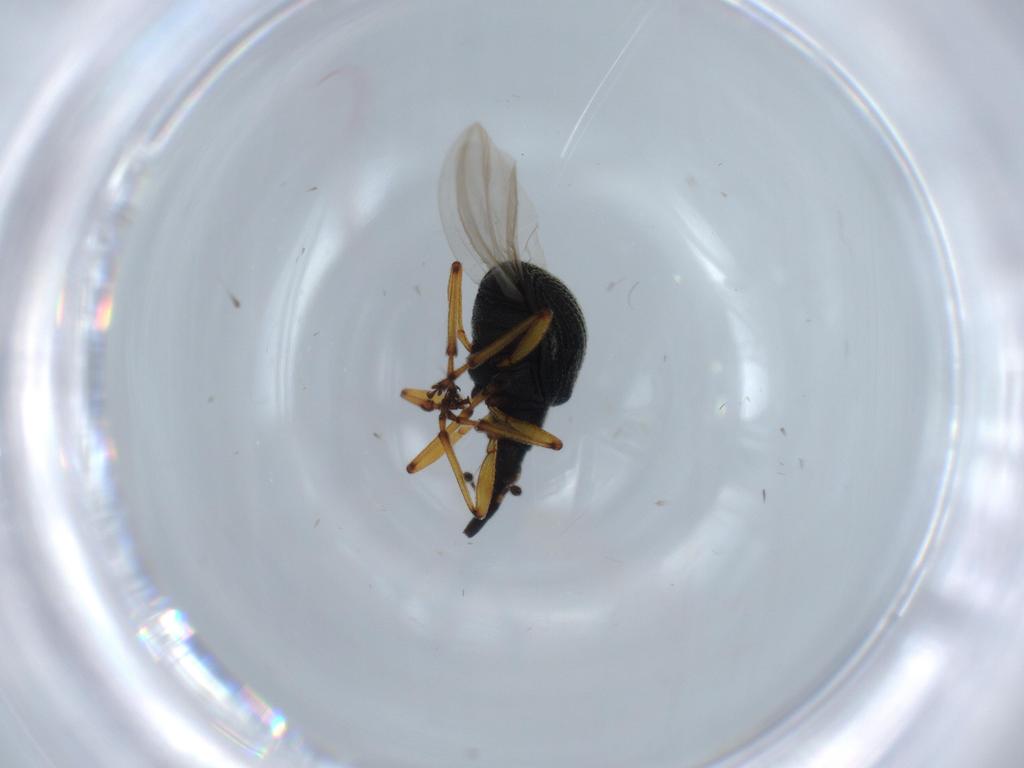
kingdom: Animalia
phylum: Arthropoda
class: Insecta
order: Coleoptera
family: Brentidae
